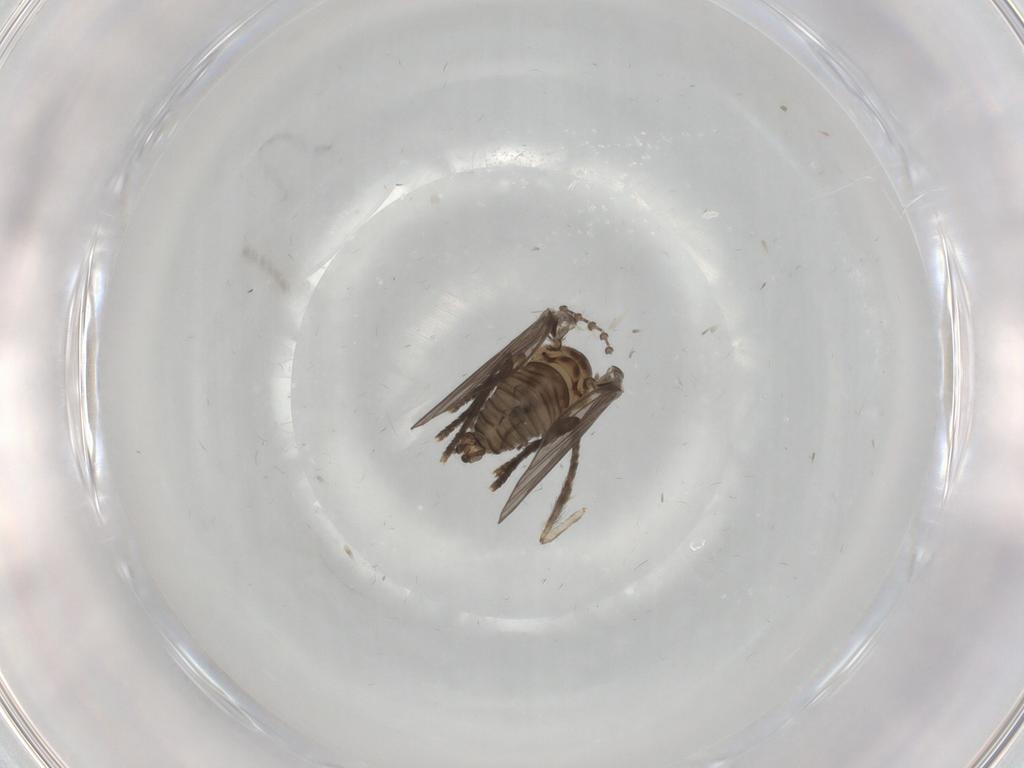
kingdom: Animalia
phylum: Arthropoda
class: Insecta
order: Diptera
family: Psychodidae
